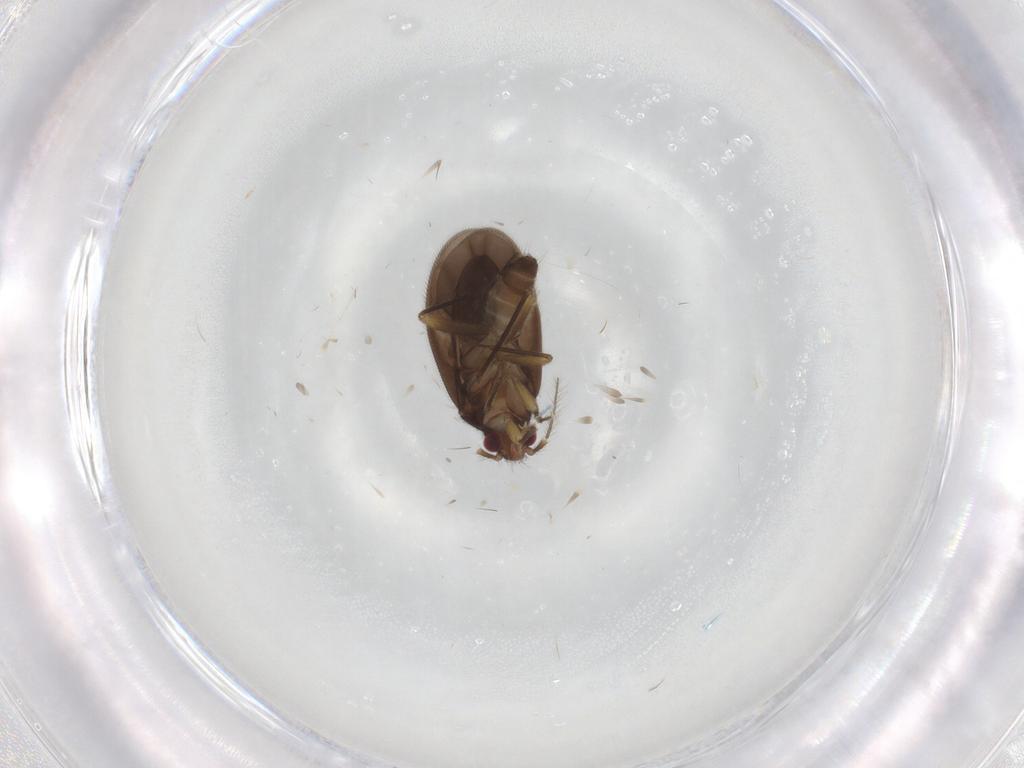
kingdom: Animalia
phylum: Arthropoda
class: Insecta
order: Hemiptera
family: Ceratocombidae
